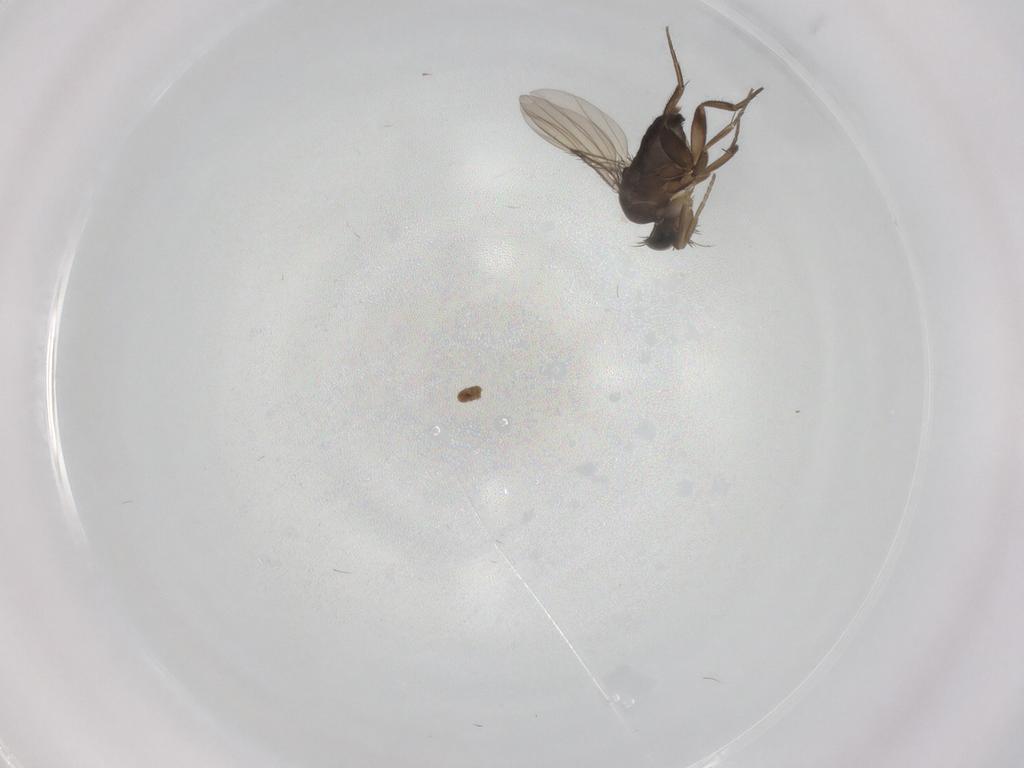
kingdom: Animalia
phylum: Arthropoda
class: Insecta
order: Diptera
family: Phoridae
